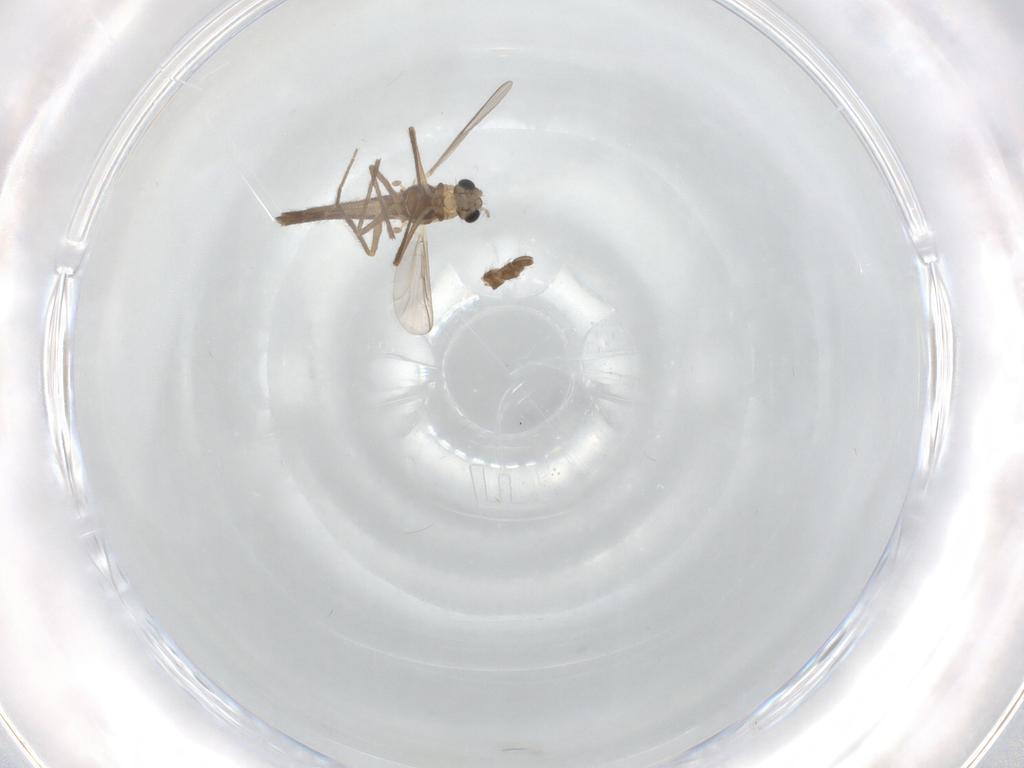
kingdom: Animalia
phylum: Arthropoda
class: Insecta
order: Diptera
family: Chironomidae
